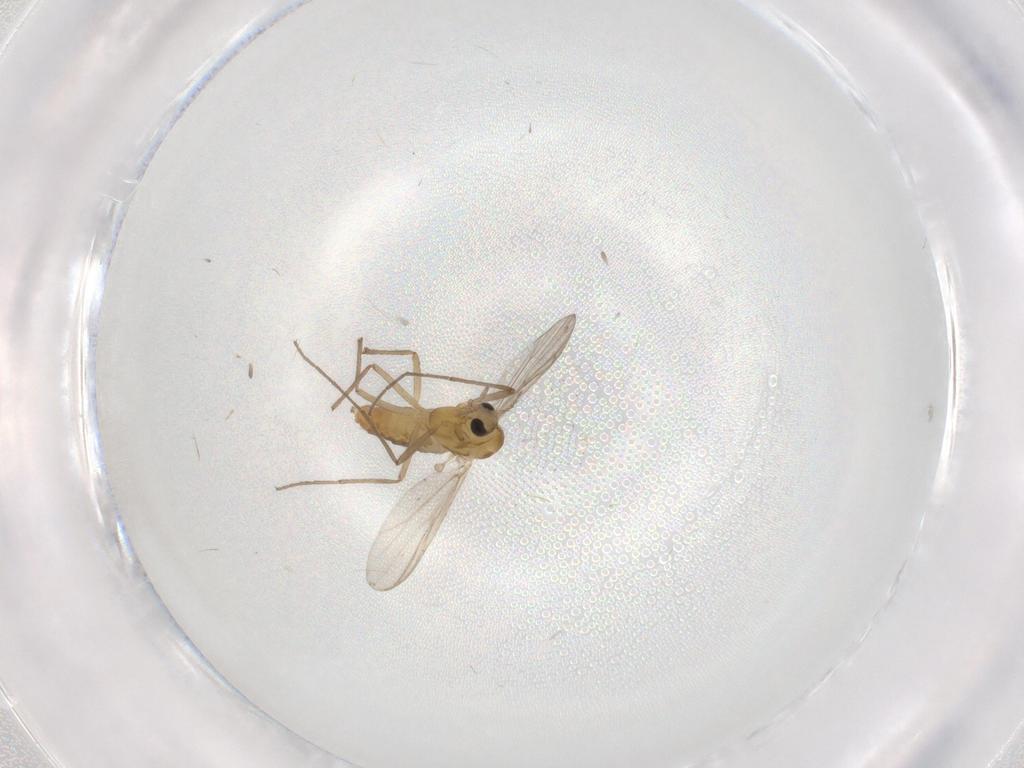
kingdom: Animalia
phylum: Arthropoda
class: Insecta
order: Diptera
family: Chironomidae
